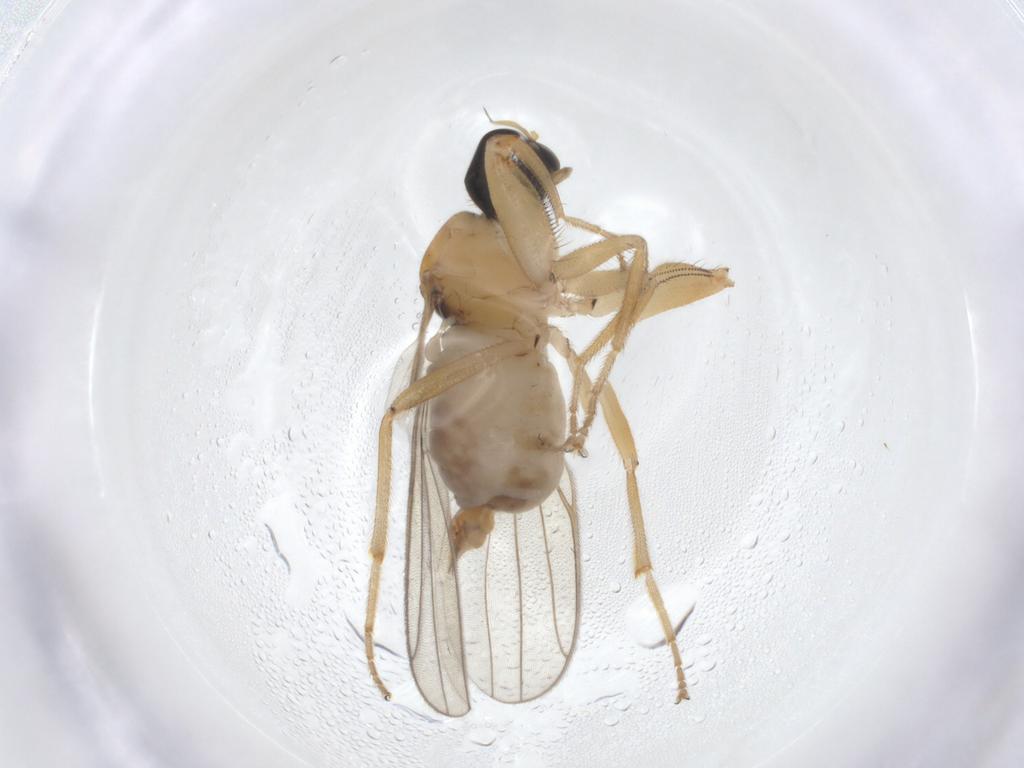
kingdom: Animalia
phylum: Arthropoda
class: Insecta
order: Diptera
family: Hybotidae
